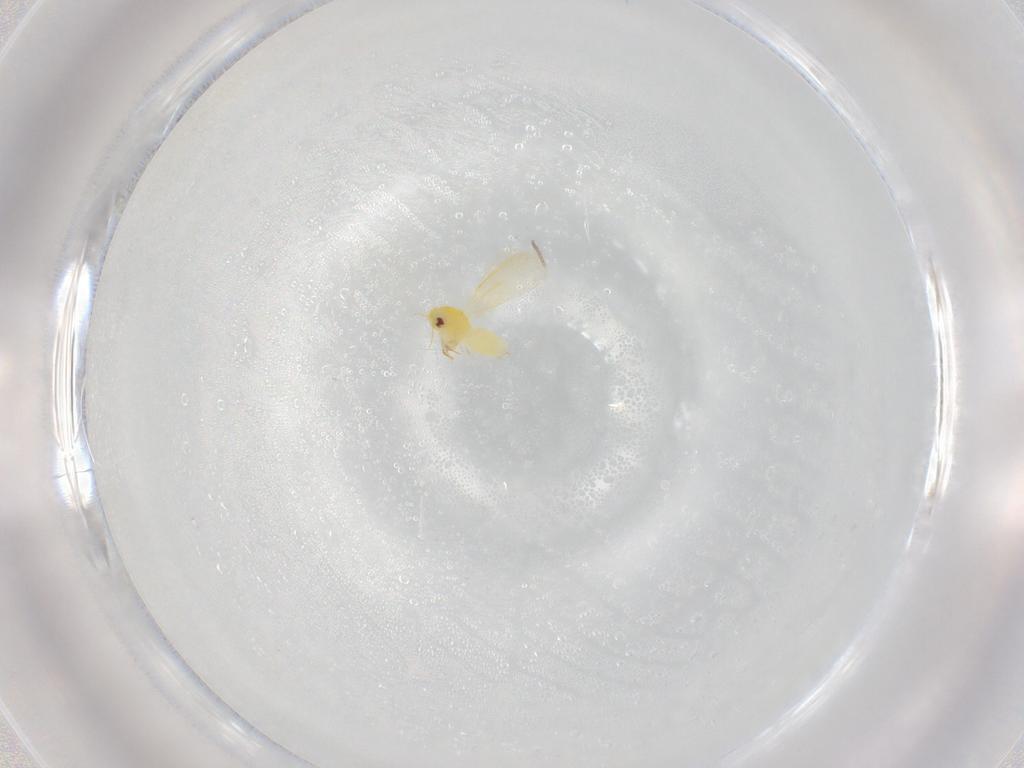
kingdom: Animalia
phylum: Arthropoda
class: Insecta
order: Hemiptera
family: Aleyrodidae
